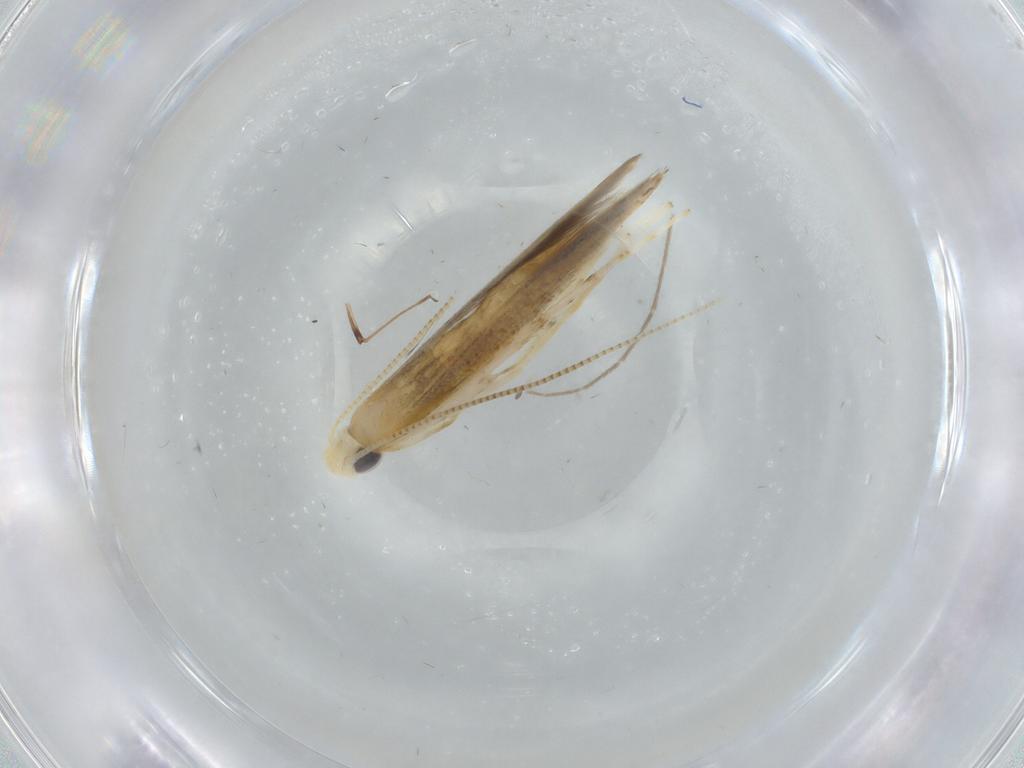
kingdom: Animalia
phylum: Arthropoda
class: Insecta
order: Lepidoptera
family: Gracillariidae
